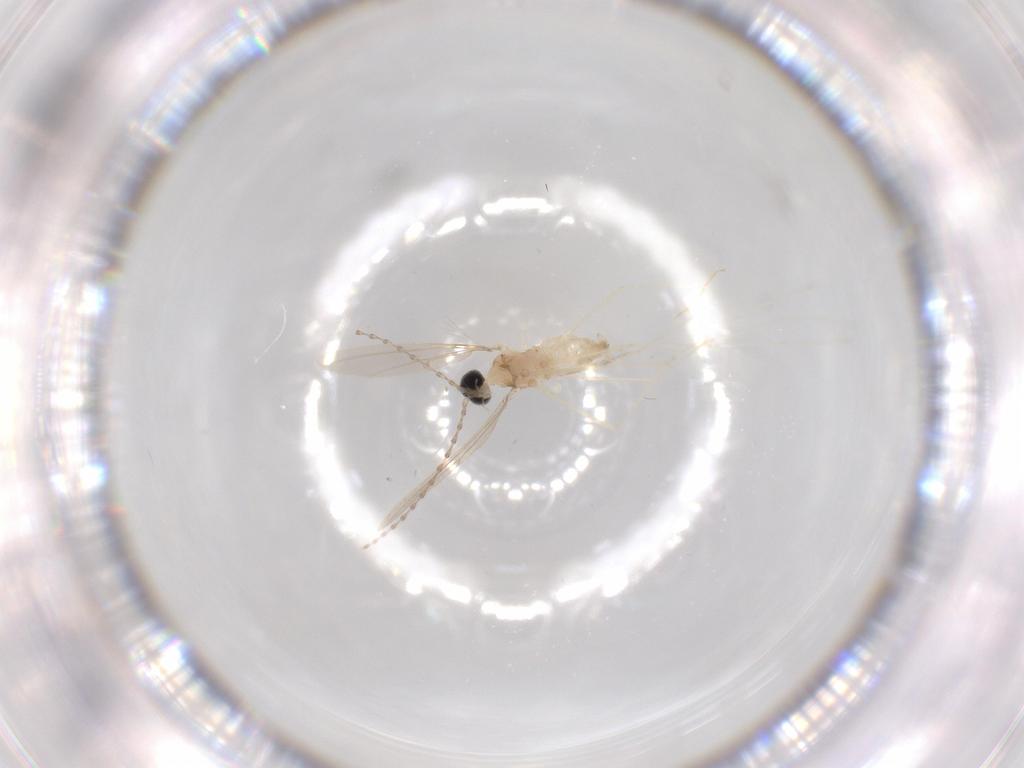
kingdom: Animalia
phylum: Arthropoda
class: Insecta
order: Diptera
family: Cecidomyiidae
